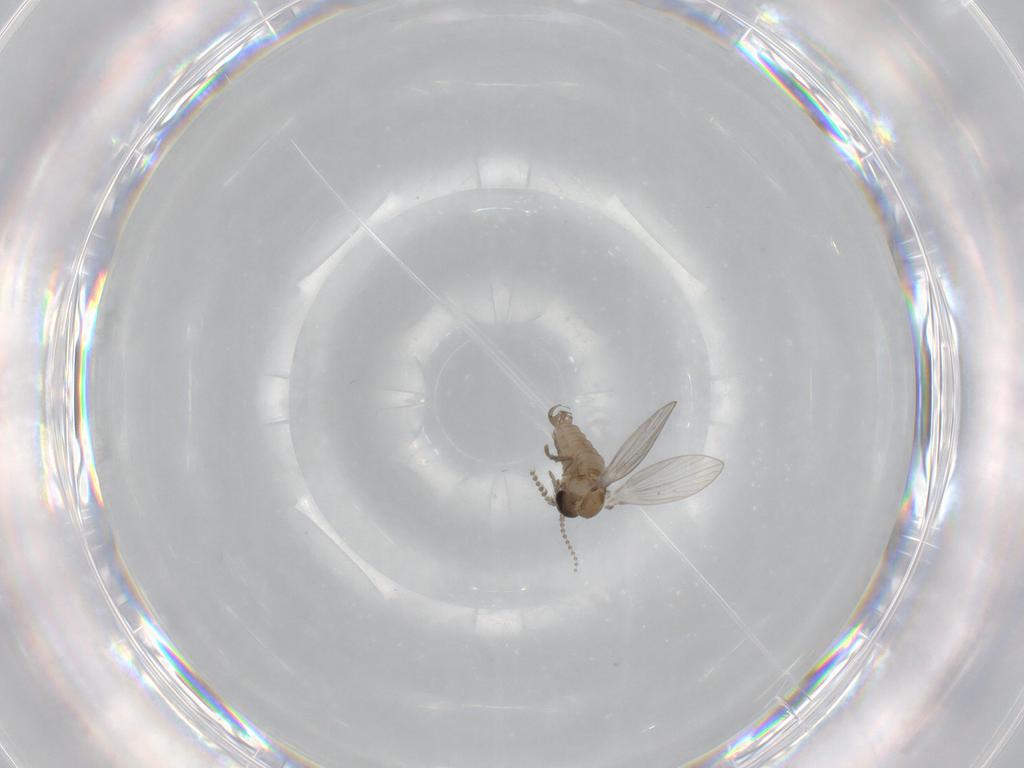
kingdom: Animalia
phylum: Arthropoda
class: Insecta
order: Diptera
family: Psychodidae
